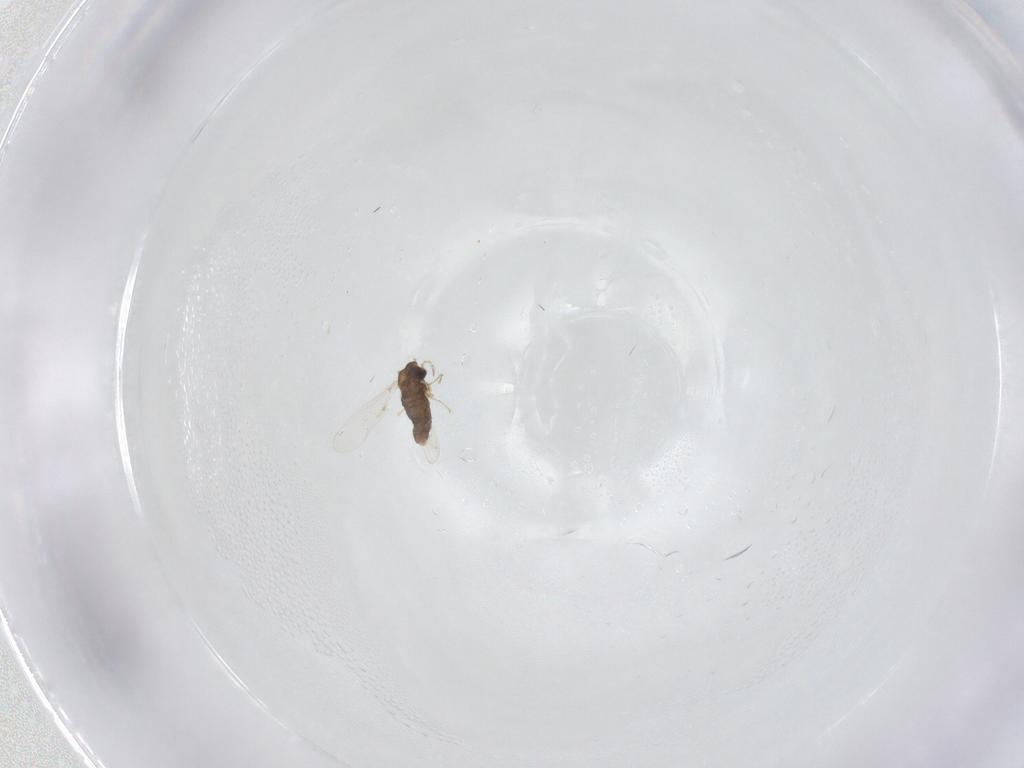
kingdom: Animalia
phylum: Arthropoda
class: Insecta
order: Diptera
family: Cecidomyiidae
